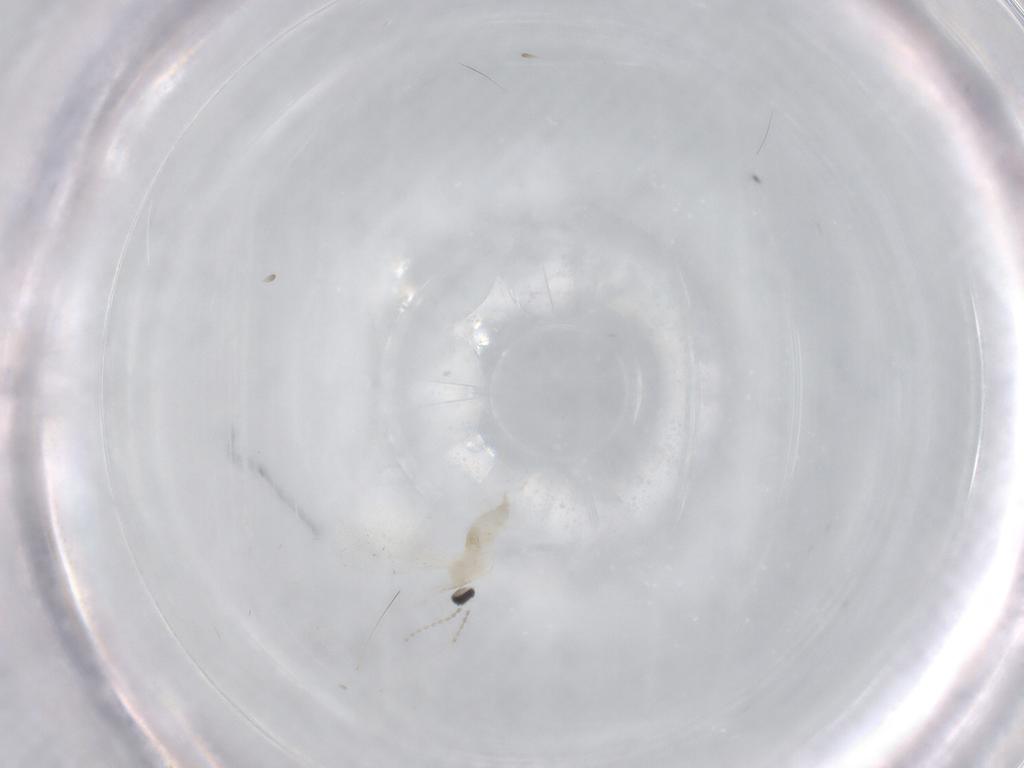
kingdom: Animalia
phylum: Arthropoda
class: Insecta
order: Diptera
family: Cecidomyiidae
